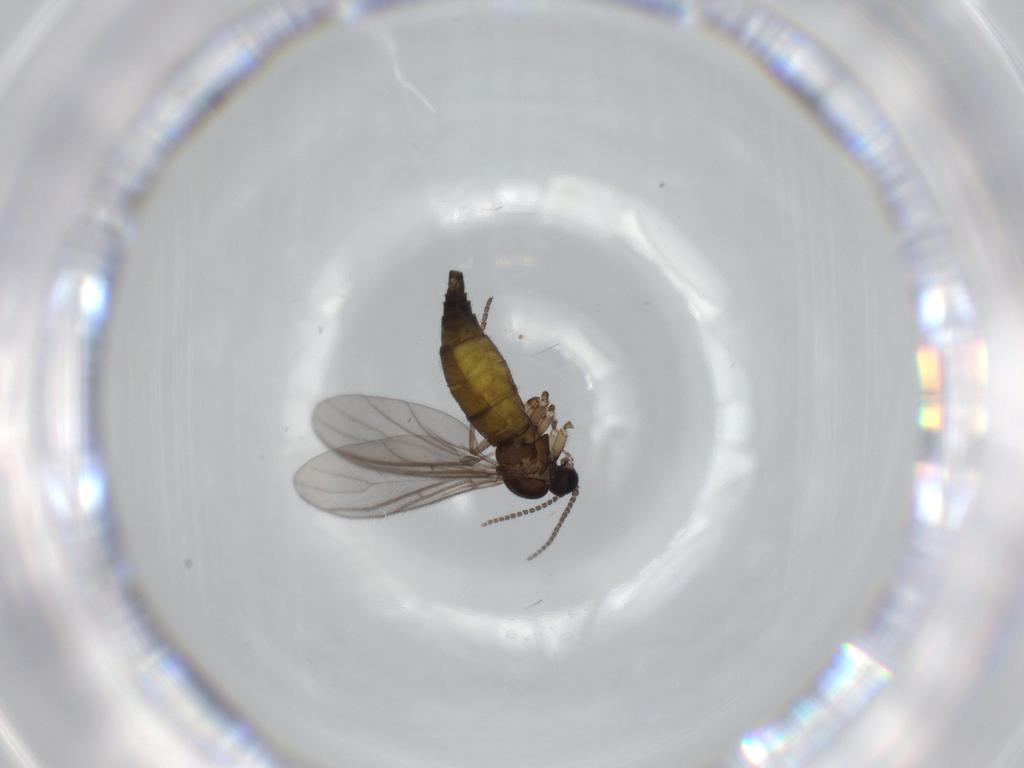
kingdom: Animalia
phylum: Arthropoda
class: Insecta
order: Diptera
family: Sciaridae
